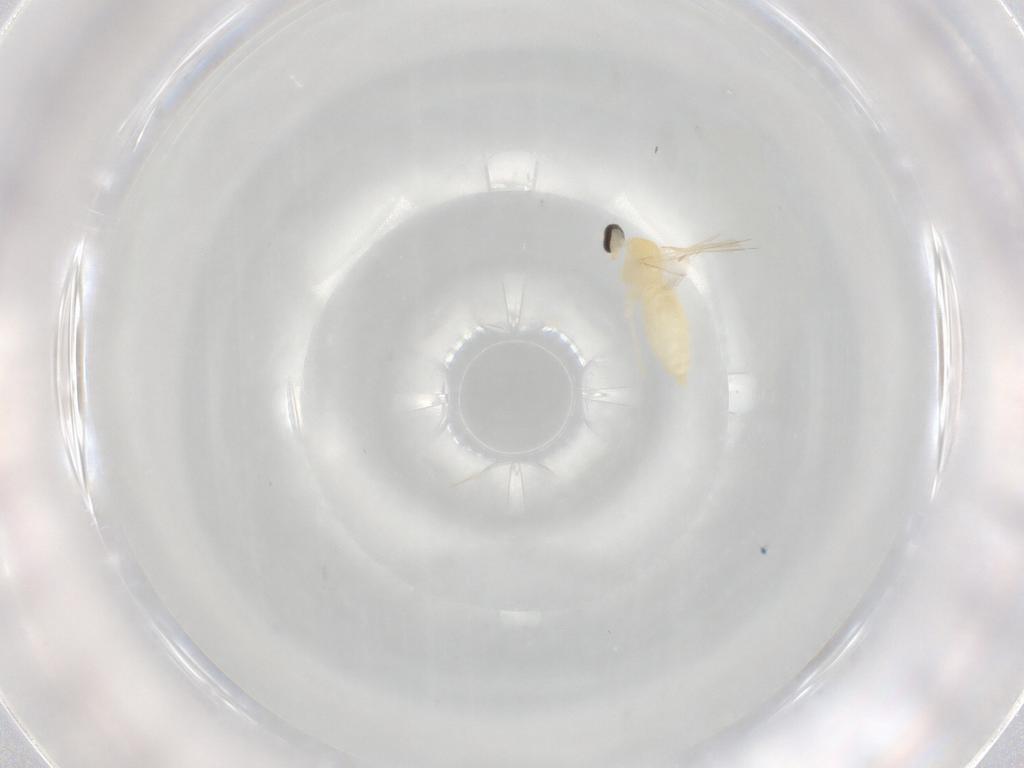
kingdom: Animalia
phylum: Arthropoda
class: Insecta
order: Diptera
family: Cecidomyiidae
